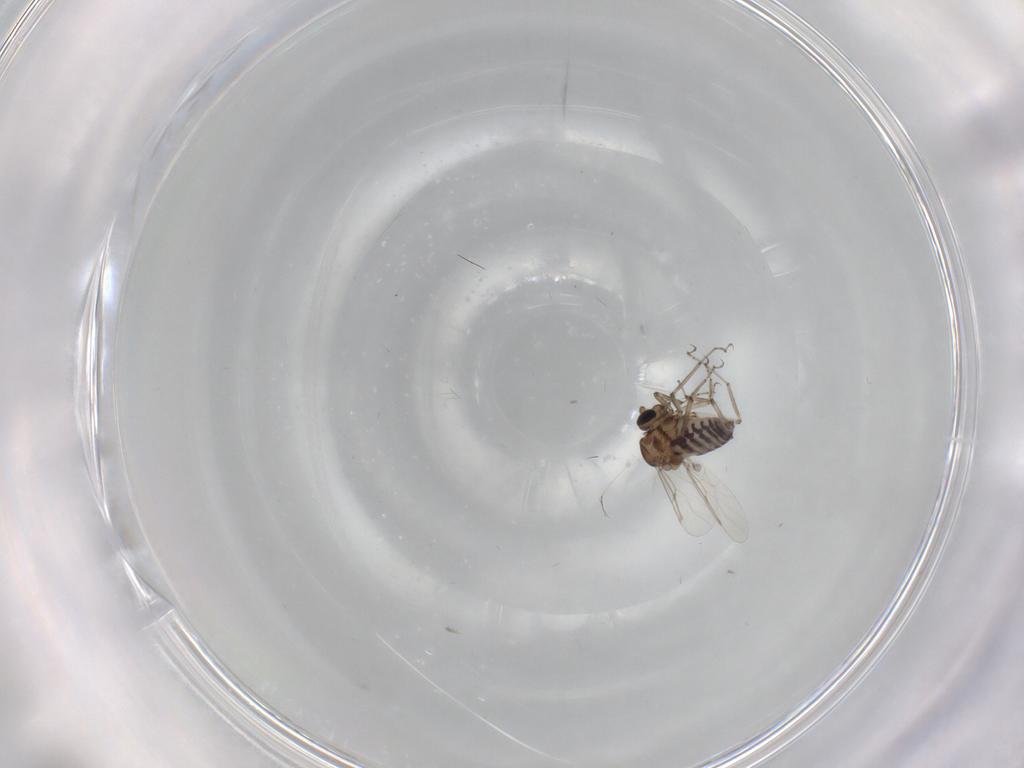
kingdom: Animalia
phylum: Arthropoda
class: Insecta
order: Diptera
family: Ceratopogonidae
